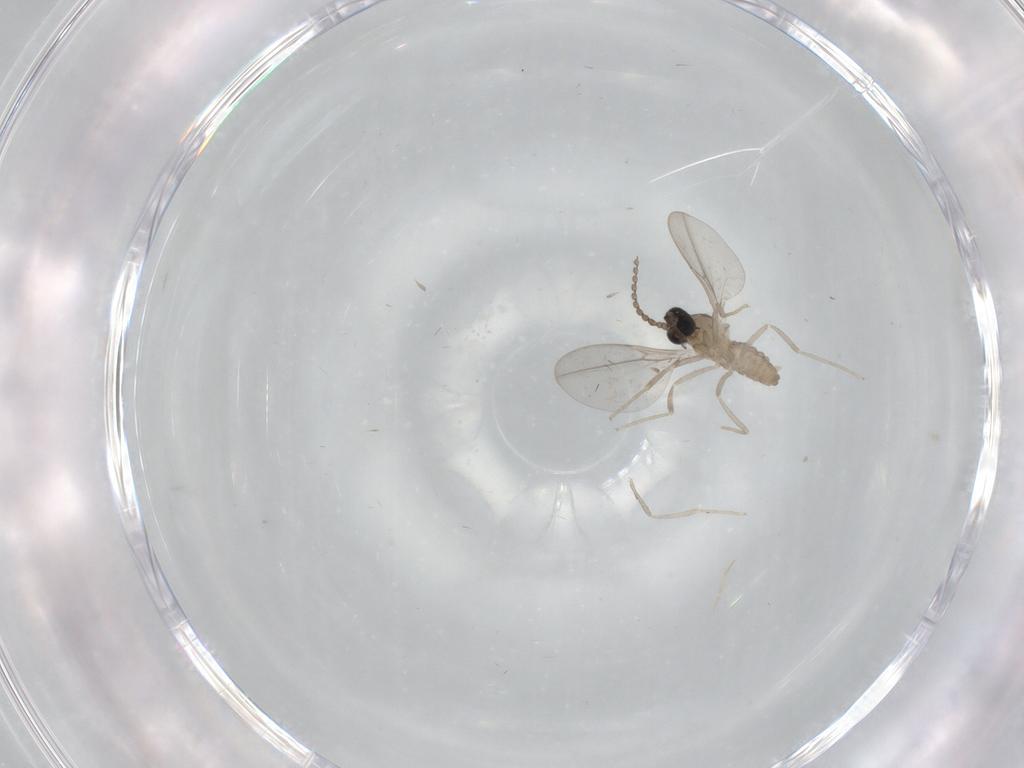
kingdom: Animalia
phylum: Arthropoda
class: Insecta
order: Diptera
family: Phoridae
